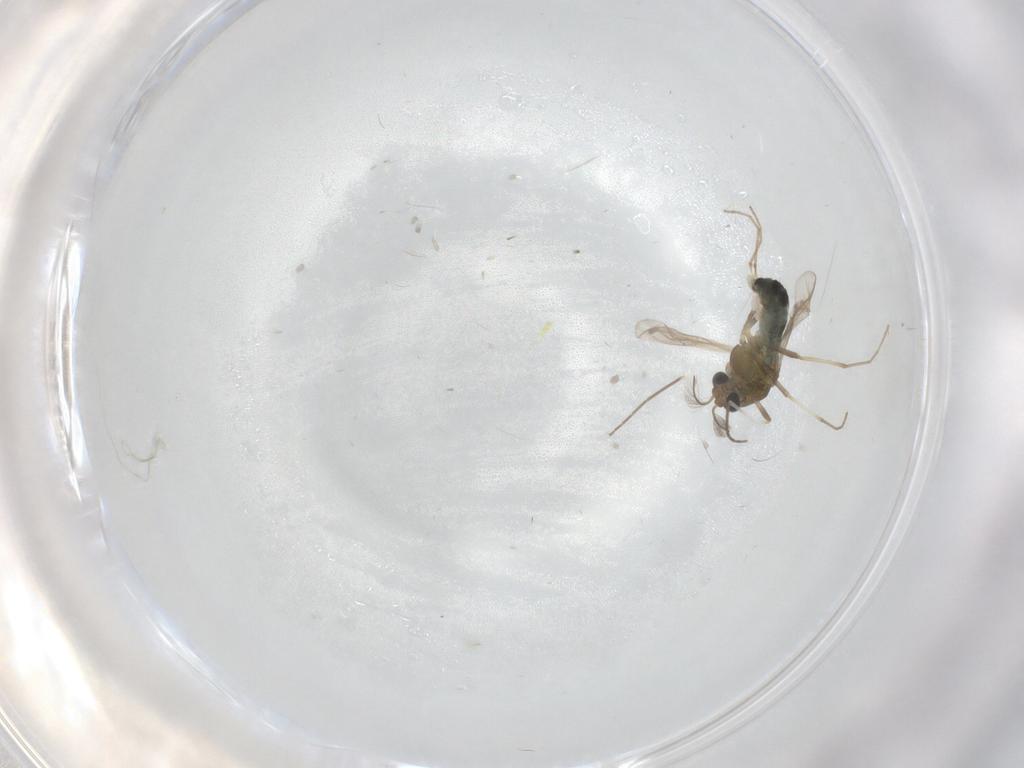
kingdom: Animalia
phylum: Arthropoda
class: Insecta
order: Diptera
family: Chironomidae
